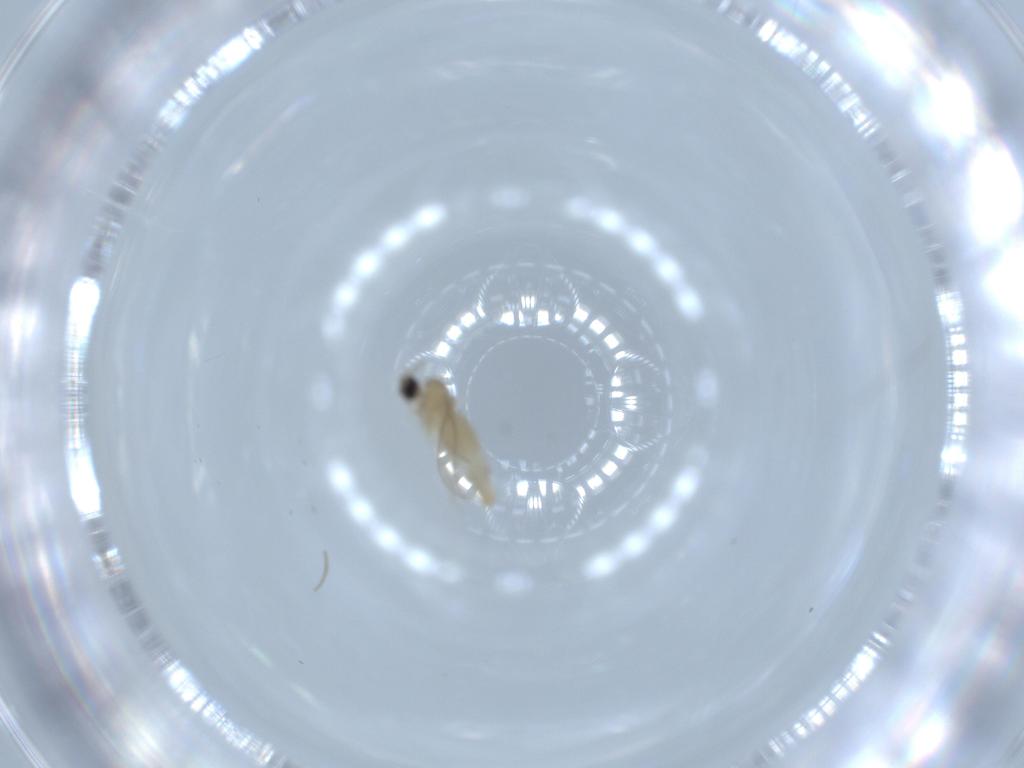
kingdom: Animalia
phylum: Arthropoda
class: Insecta
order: Diptera
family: Cecidomyiidae
